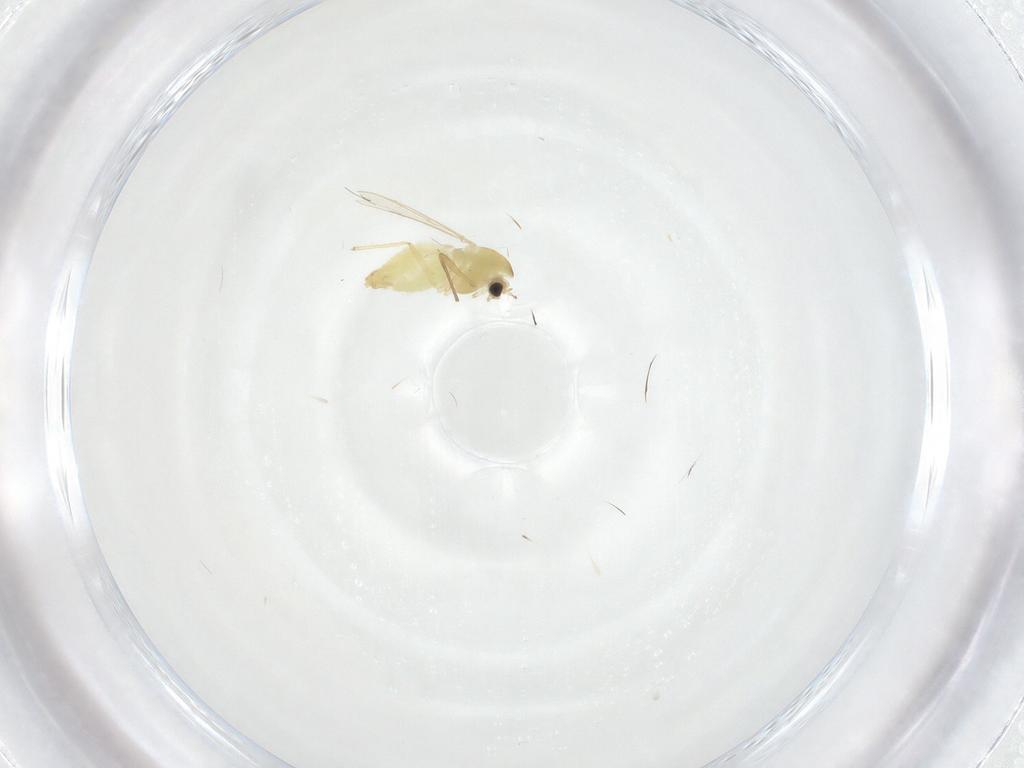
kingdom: Animalia
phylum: Arthropoda
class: Insecta
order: Diptera
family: Chironomidae
